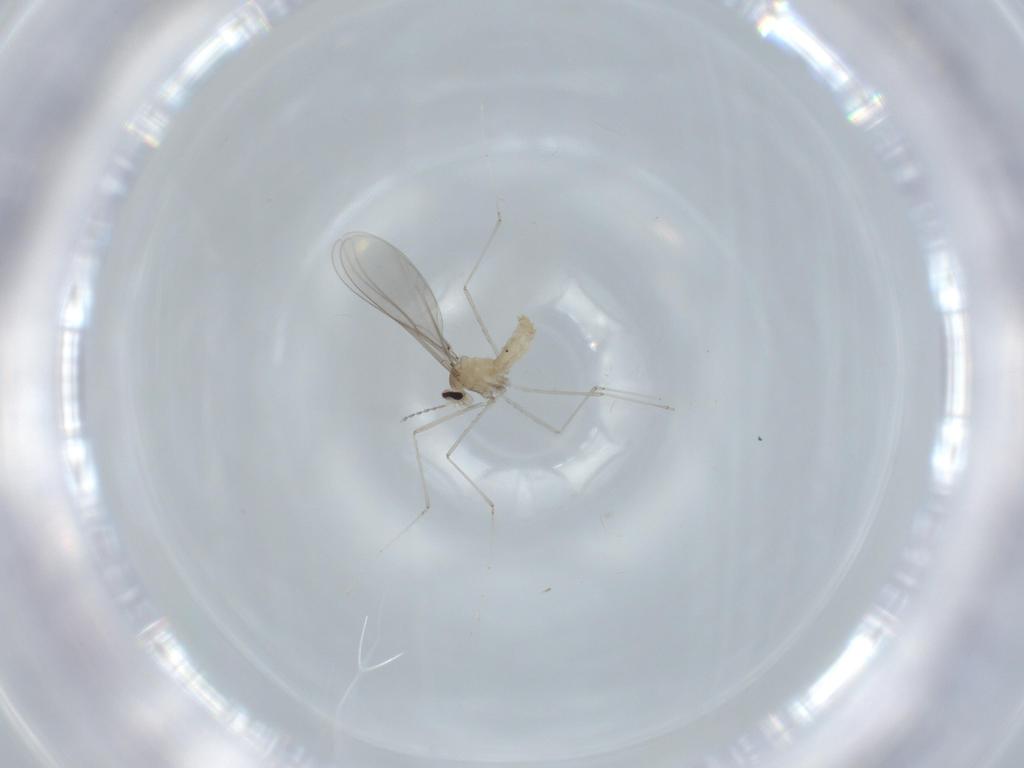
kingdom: Animalia
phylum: Arthropoda
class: Insecta
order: Diptera
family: Cecidomyiidae
